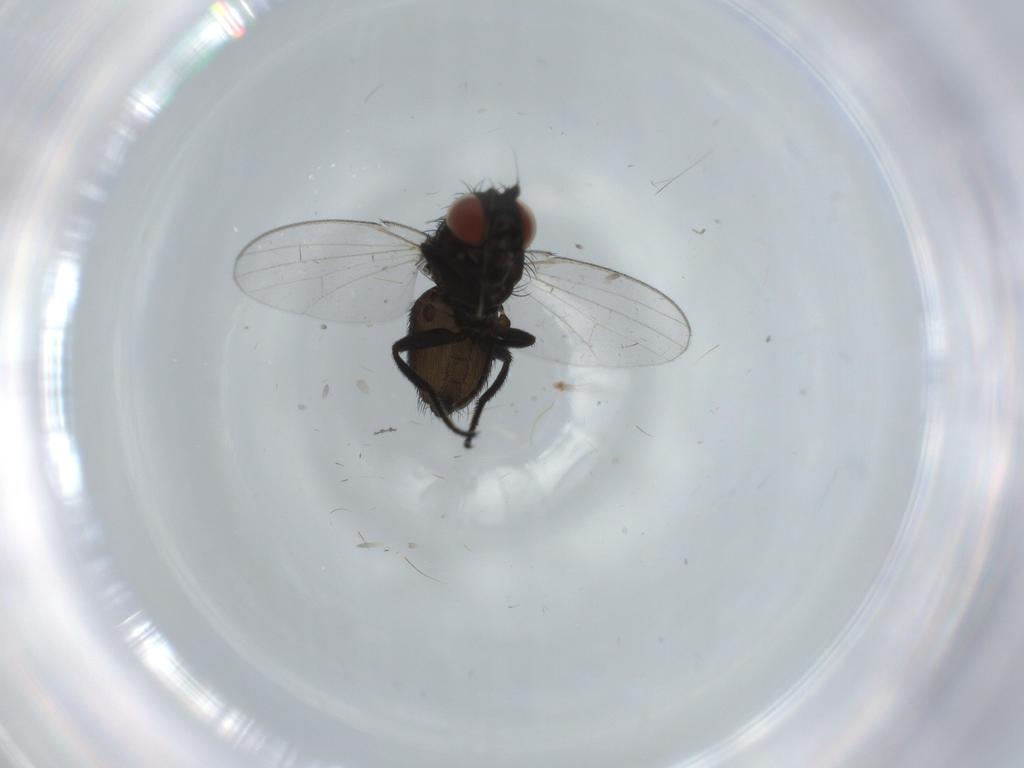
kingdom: Animalia
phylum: Arthropoda
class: Insecta
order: Diptera
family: Milichiidae
